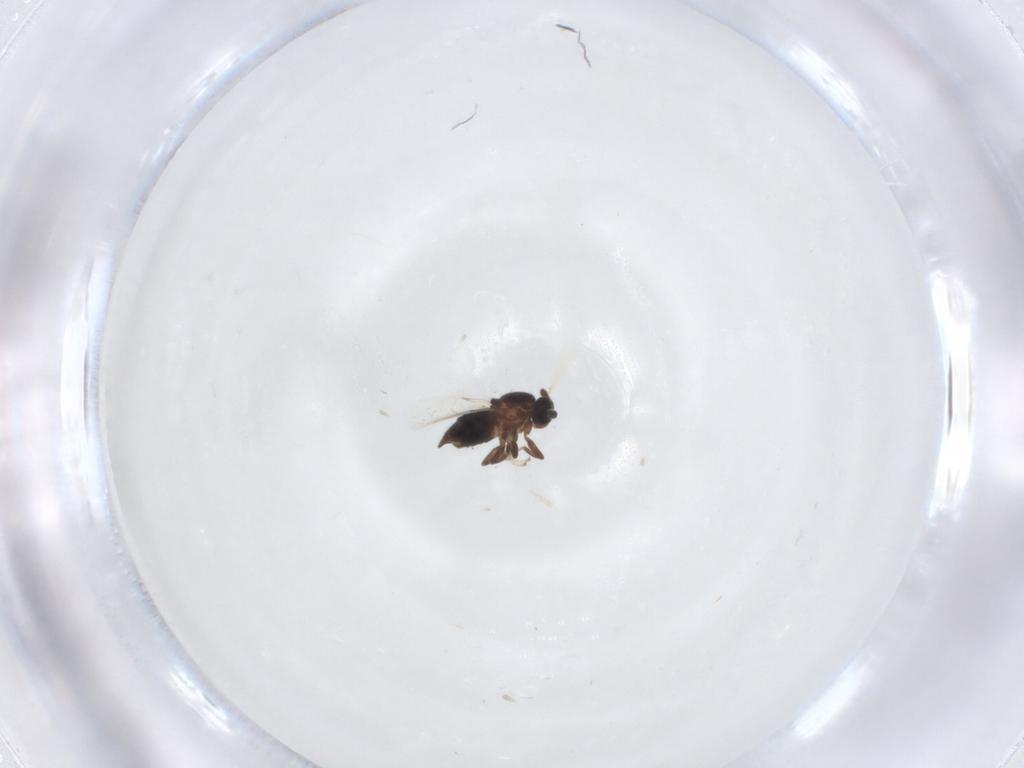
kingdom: Animalia
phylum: Arthropoda
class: Insecta
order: Diptera
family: Scatopsidae
